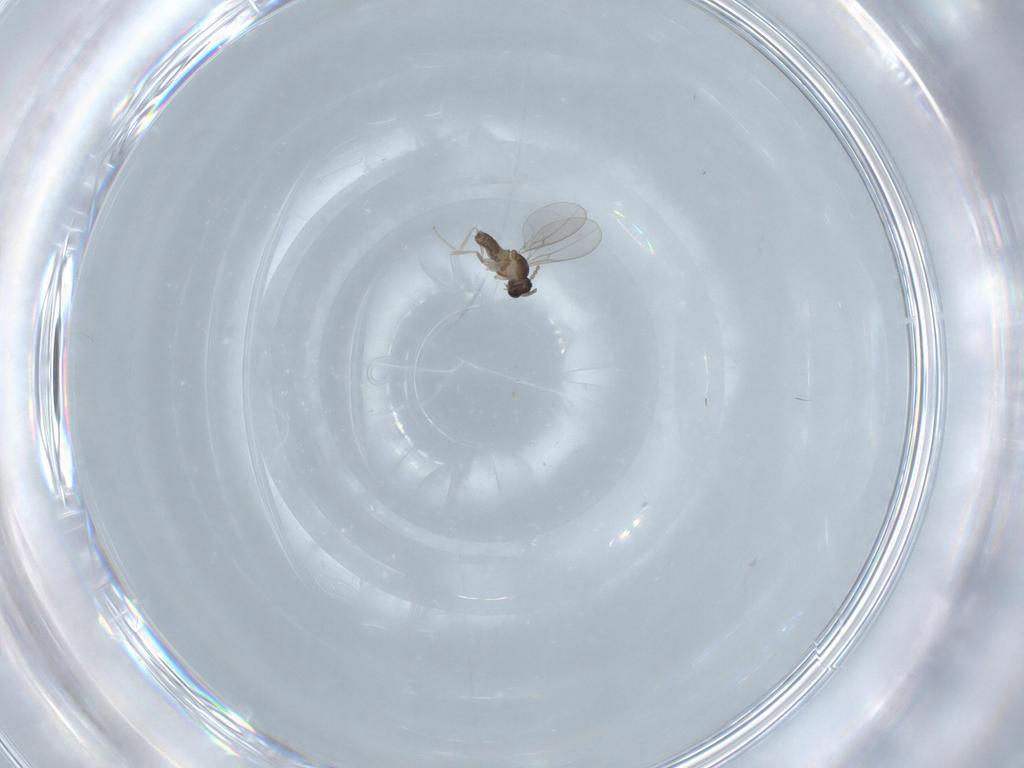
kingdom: Animalia
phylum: Arthropoda
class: Insecta
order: Diptera
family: Cecidomyiidae
